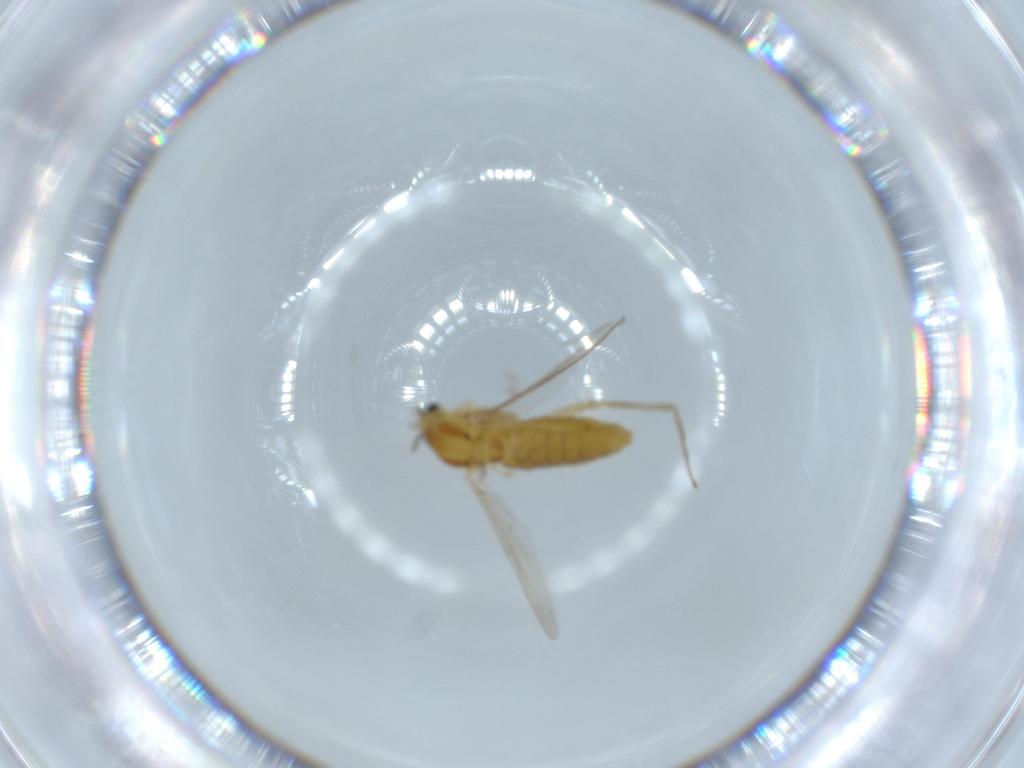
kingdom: Animalia
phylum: Arthropoda
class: Insecta
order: Diptera
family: Chironomidae
